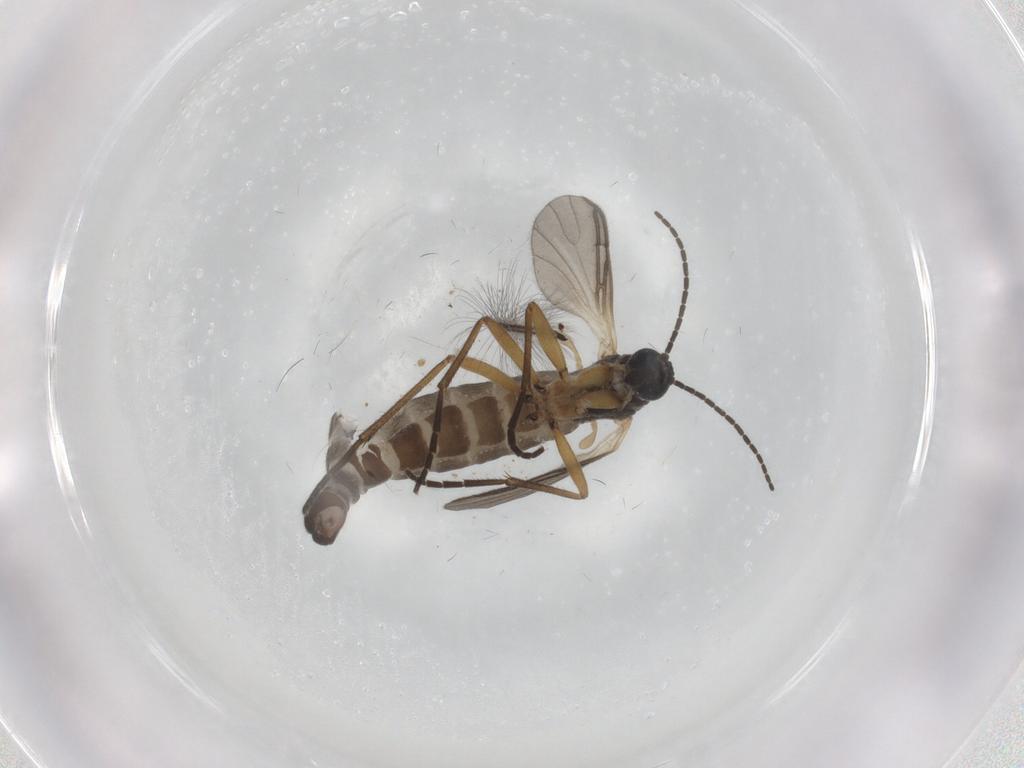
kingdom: Animalia
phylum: Arthropoda
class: Insecta
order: Diptera
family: Sciaridae
